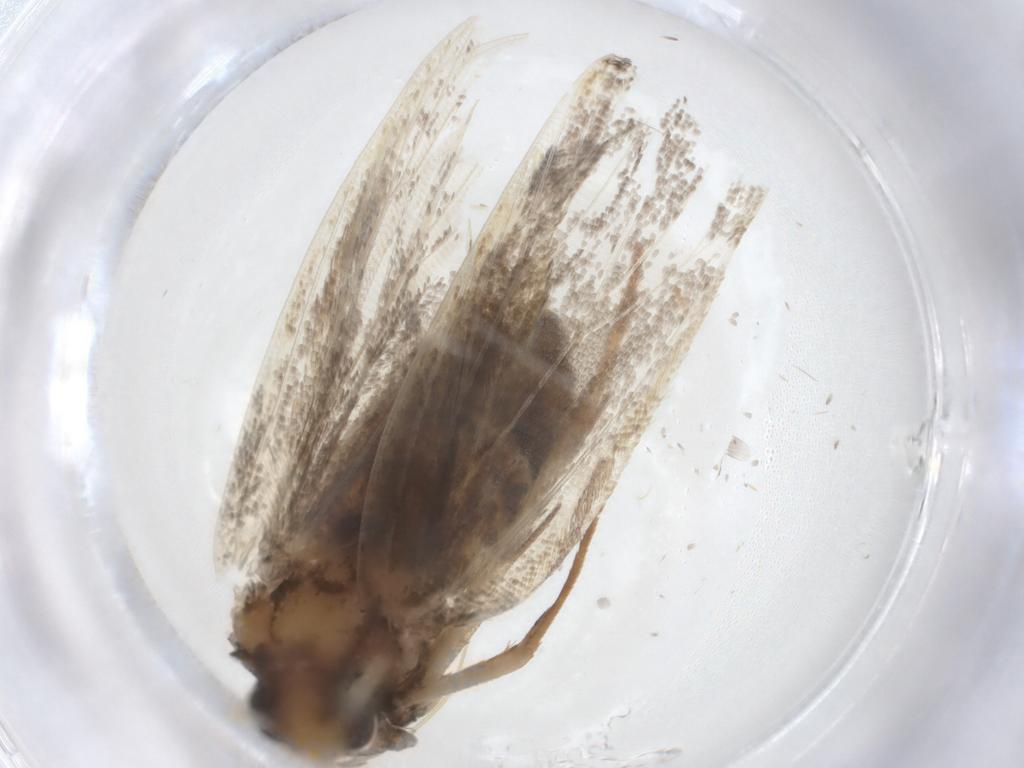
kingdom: Animalia
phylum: Arthropoda
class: Insecta
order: Lepidoptera
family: Lecithoceridae
